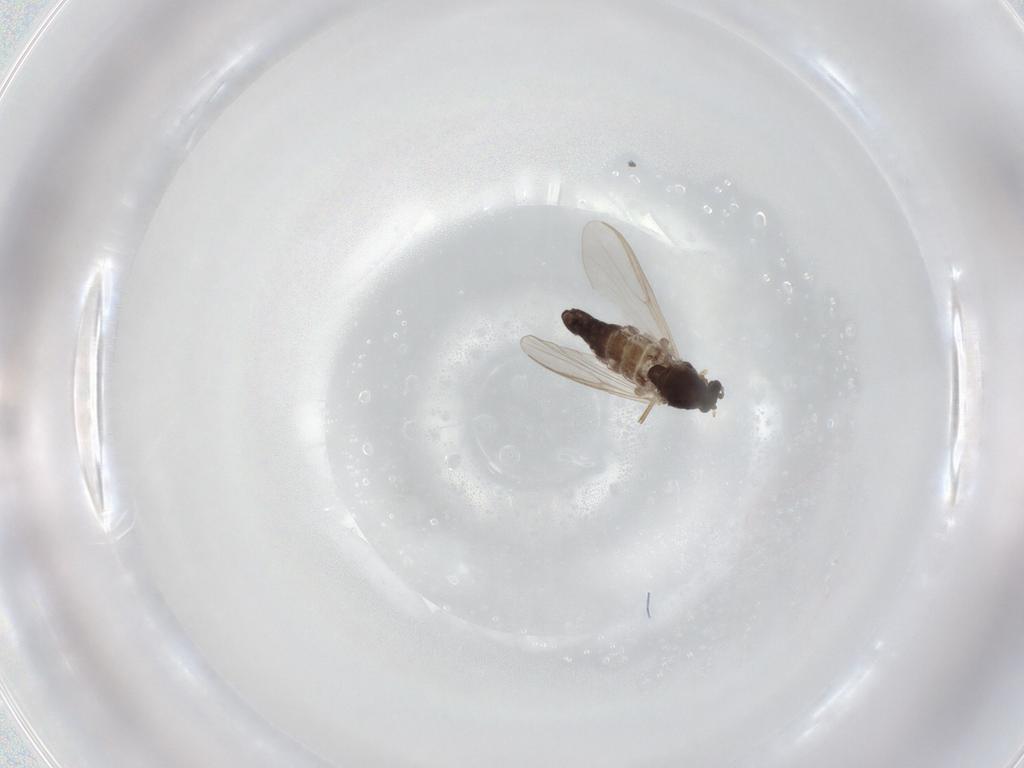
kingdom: Animalia
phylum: Arthropoda
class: Insecta
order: Diptera
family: Chironomidae
